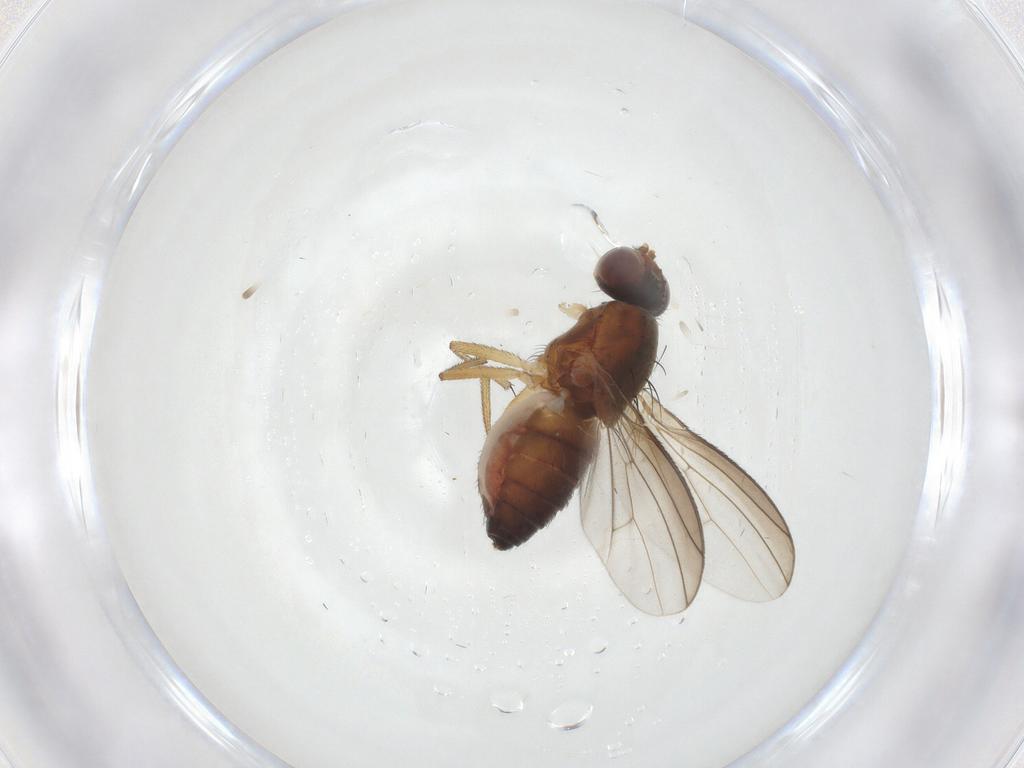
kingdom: Animalia
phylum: Arthropoda
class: Insecta
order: Diptera
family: Heleomyzidae
